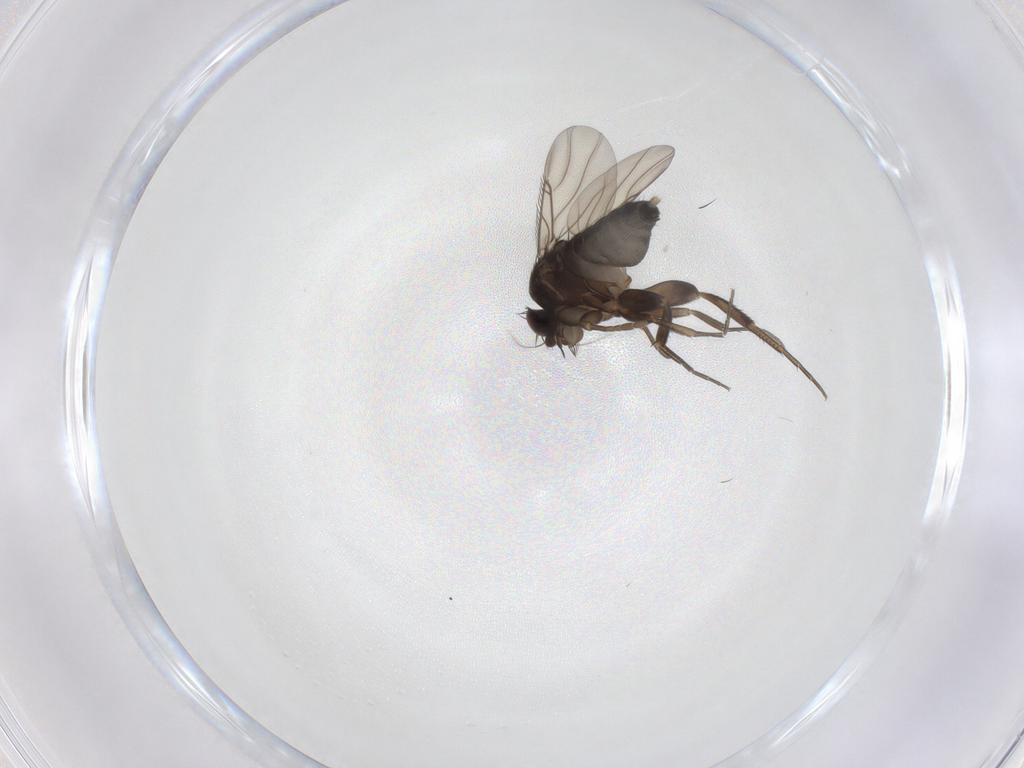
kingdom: Animalia
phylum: Arthropoda
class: Insecta
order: Diptera
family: Phoridae
